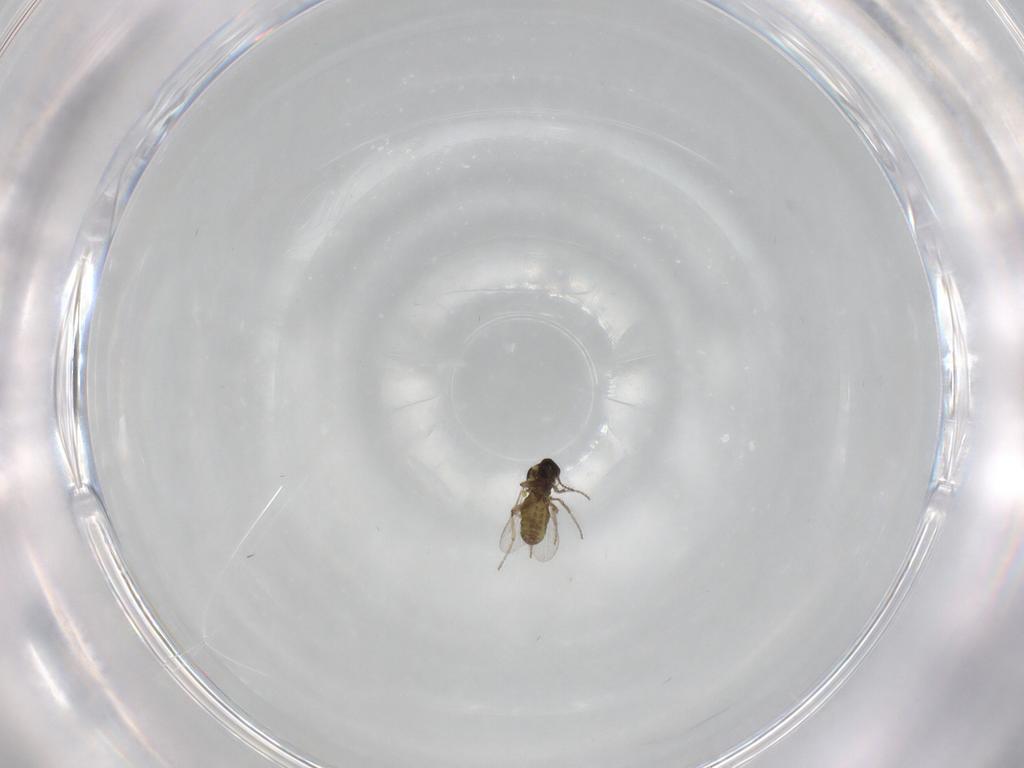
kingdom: Animalia
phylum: Arthropoda
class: Insecta
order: Diptera
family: Ceratopogonidae
